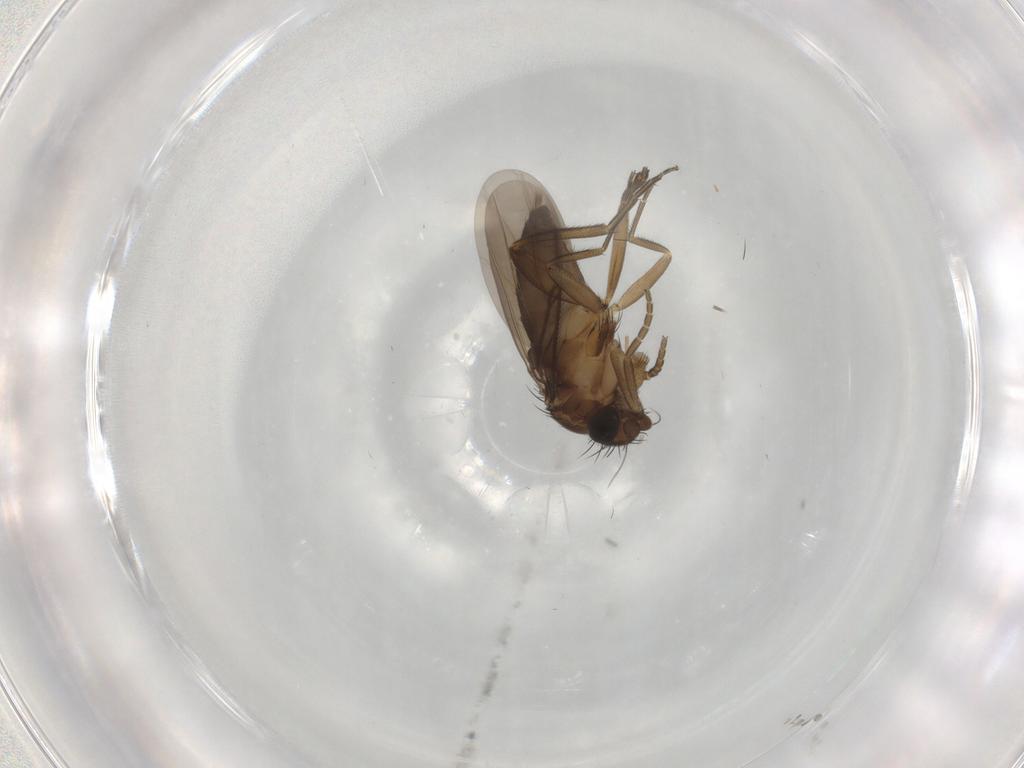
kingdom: Animalia
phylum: Arthropoda
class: Insecta
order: Diptera
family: Phoridae
